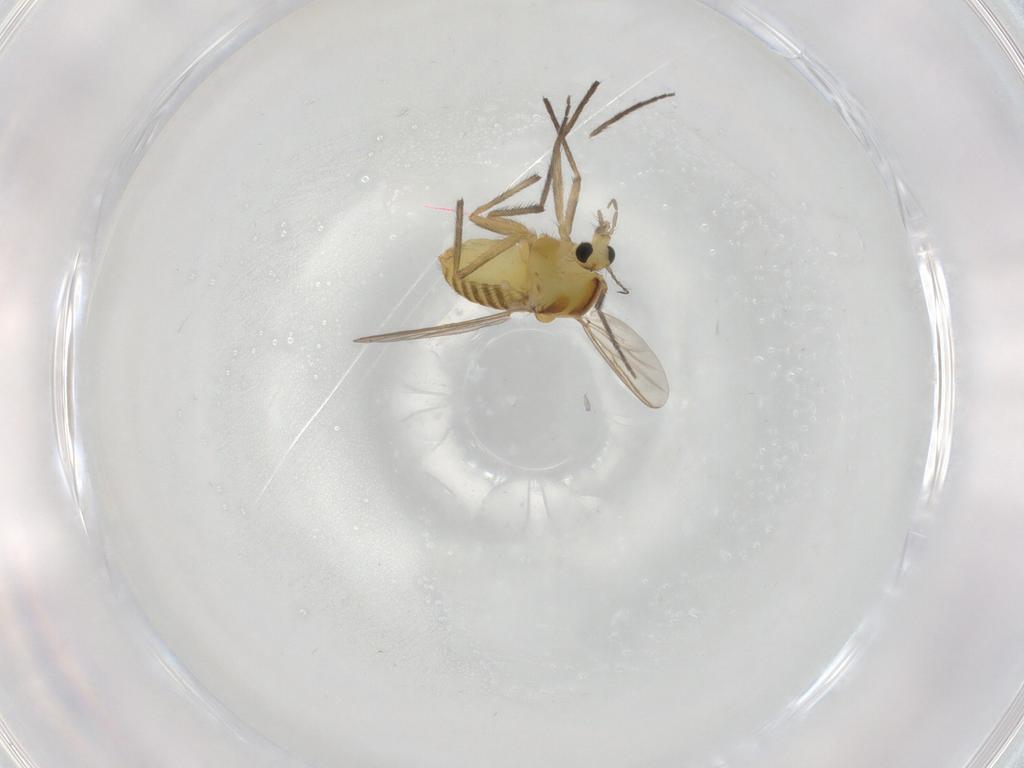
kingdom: Animalia
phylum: Arthropoda
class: Insecta
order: Diptera
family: Chironomidae
